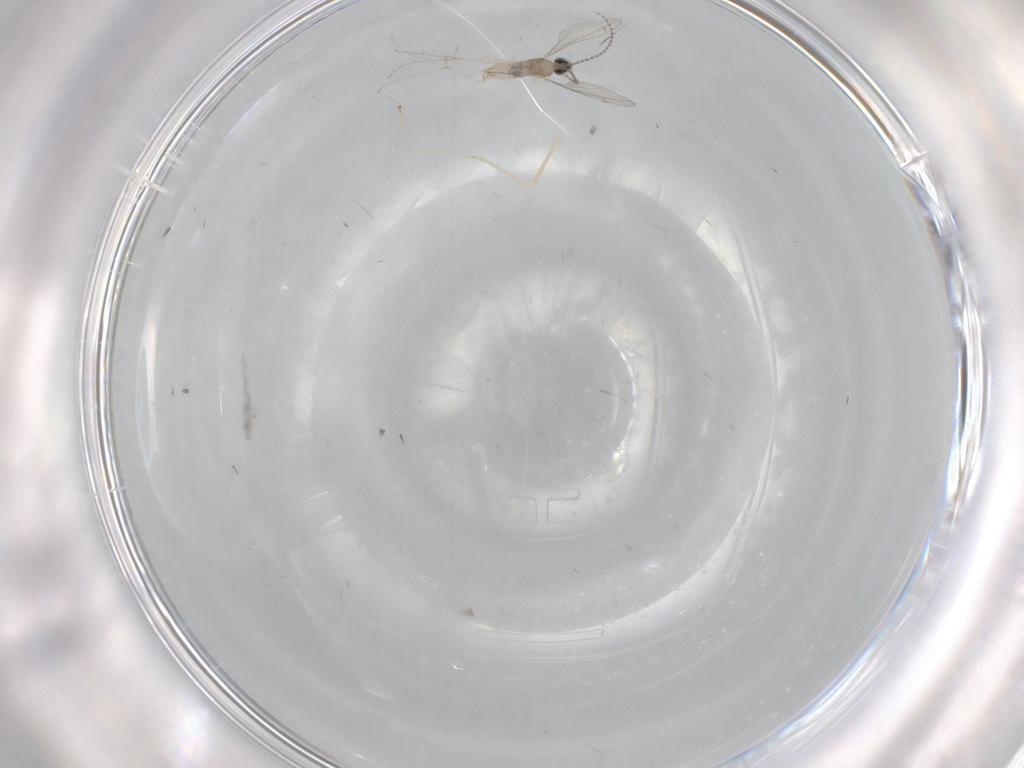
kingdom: Animalia
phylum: Arthropoda
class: Insecta
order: Diptera
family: Cecidomyiidae
